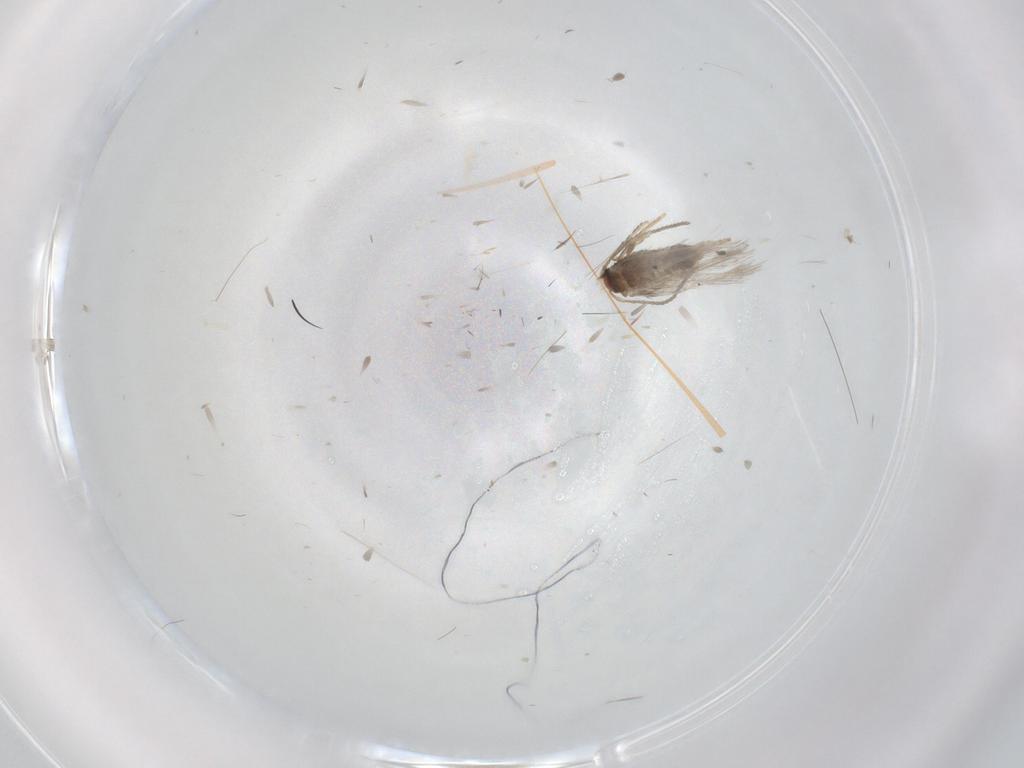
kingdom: Animalia
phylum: Arthropoda
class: Insecta
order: Lepidoptera
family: Nepticulidae
